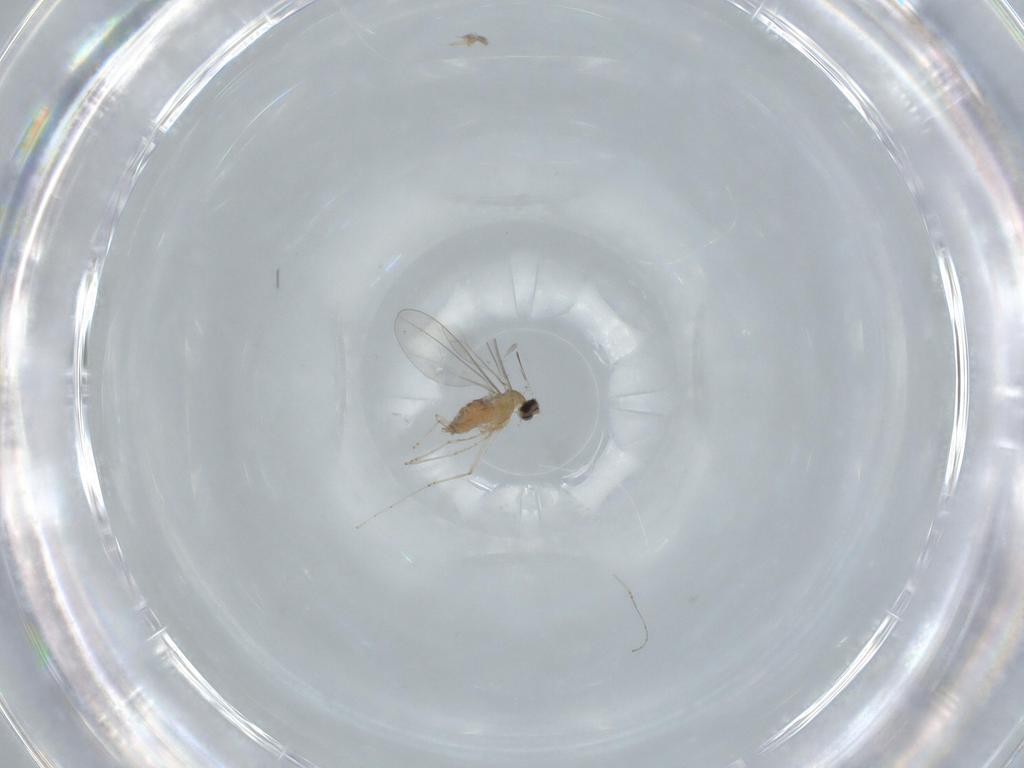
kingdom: Animalia
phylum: Arthropoda
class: Insecta
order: Diptera
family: Cecidomyiidae
